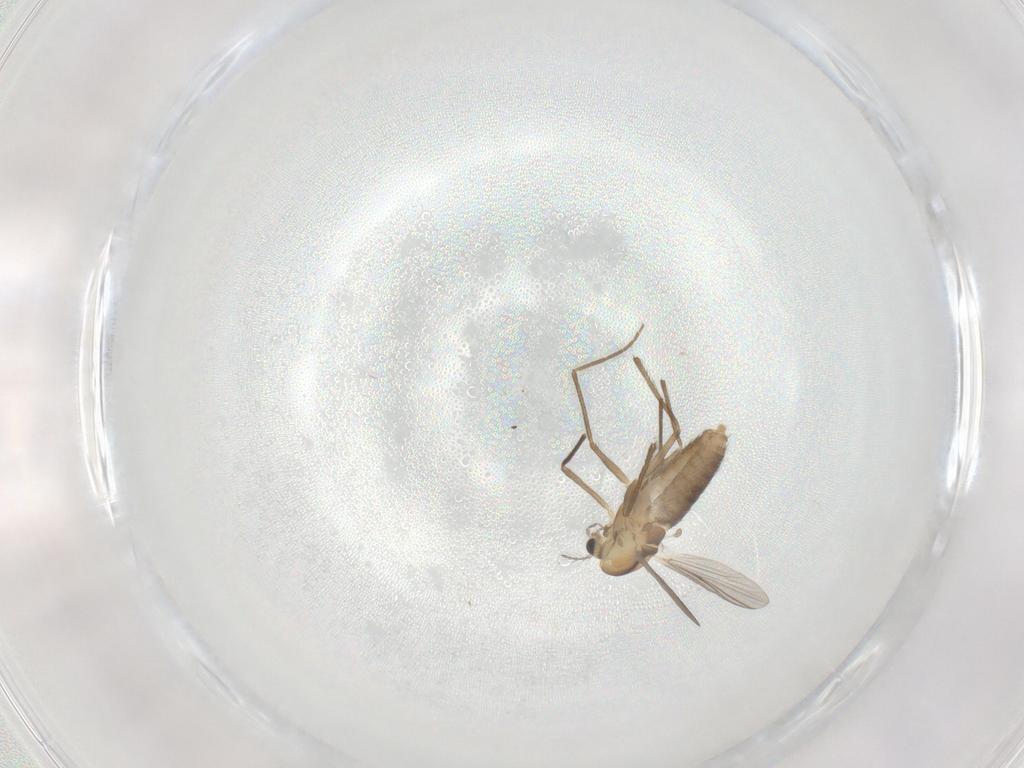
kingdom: Animalia
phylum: Arthropoda
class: Insecta
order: Diptera
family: Chironomidae
